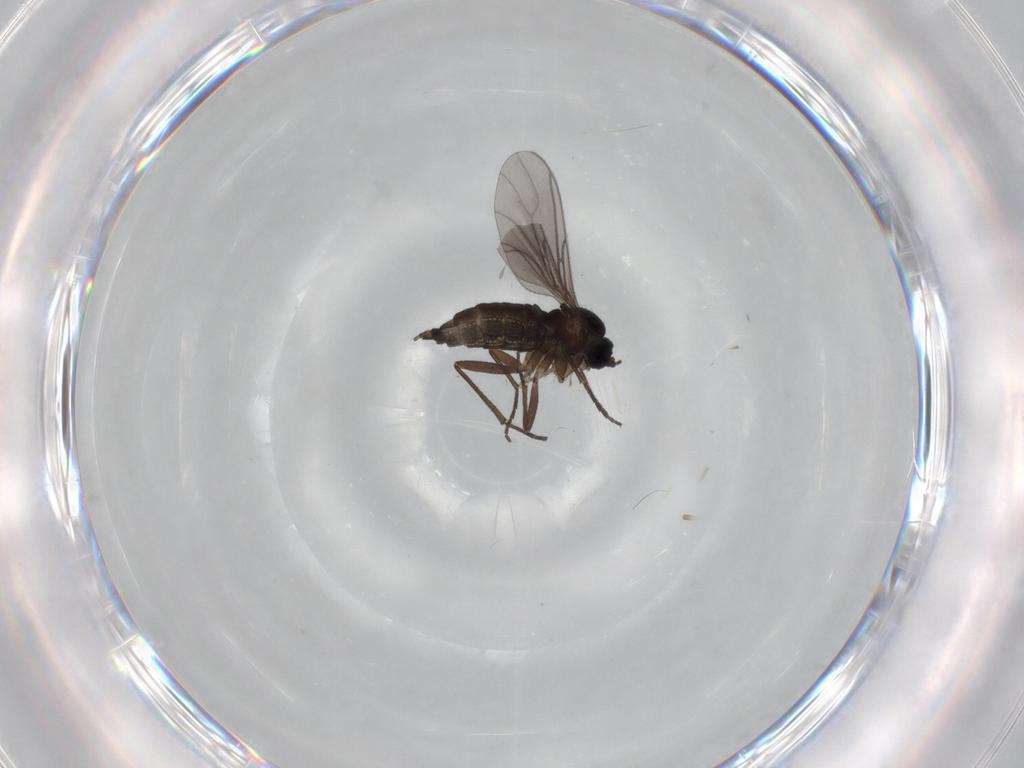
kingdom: Animalia
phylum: Arthropoda
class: Insecta
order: Diptera
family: Sciaridae
